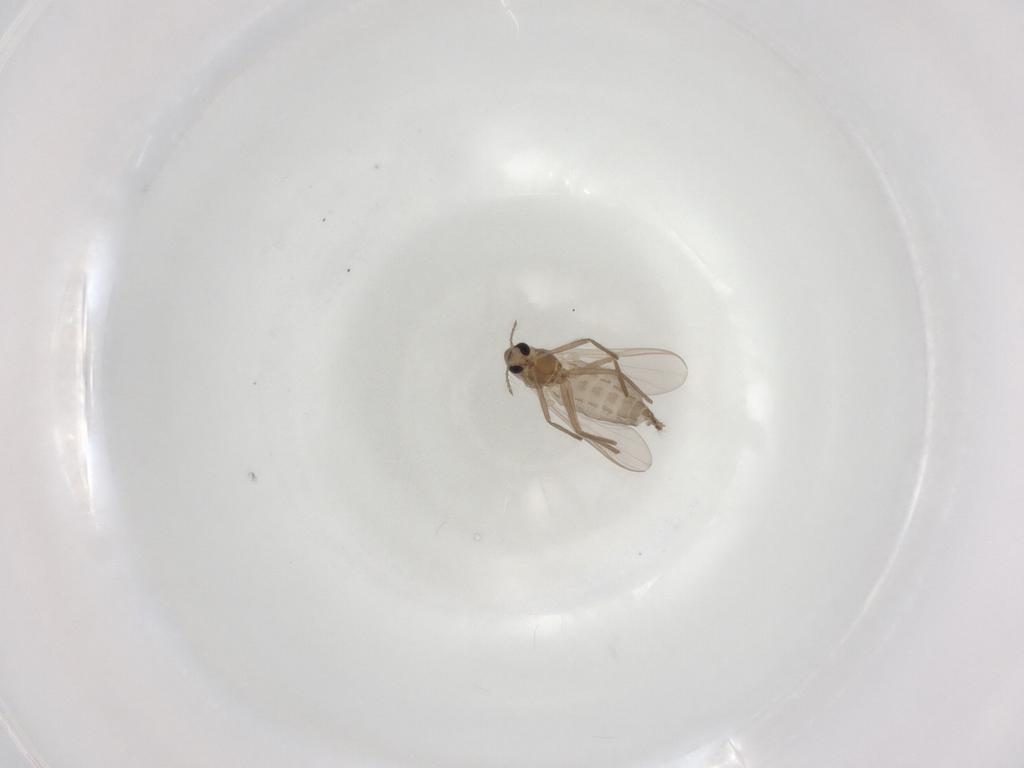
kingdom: Animalia
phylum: Arthropoda
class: Insecta
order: Diptera
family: Chironomidae
